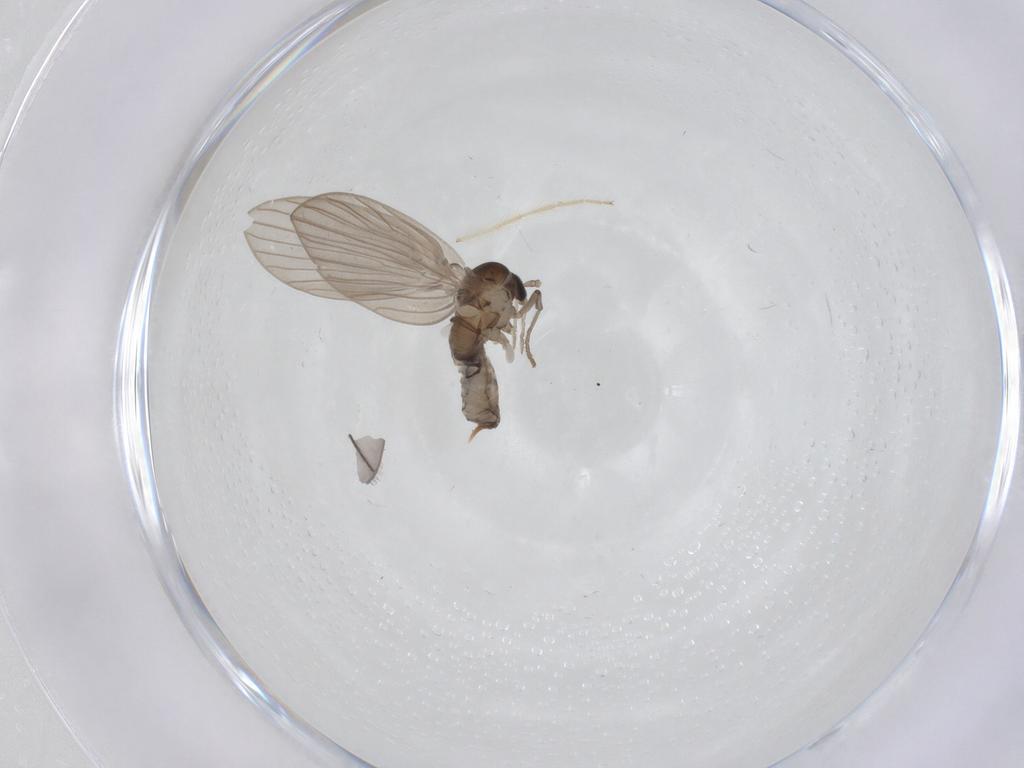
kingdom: Animalia
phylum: Arthropoda
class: Insecta
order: Diptera
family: Psychodidae
